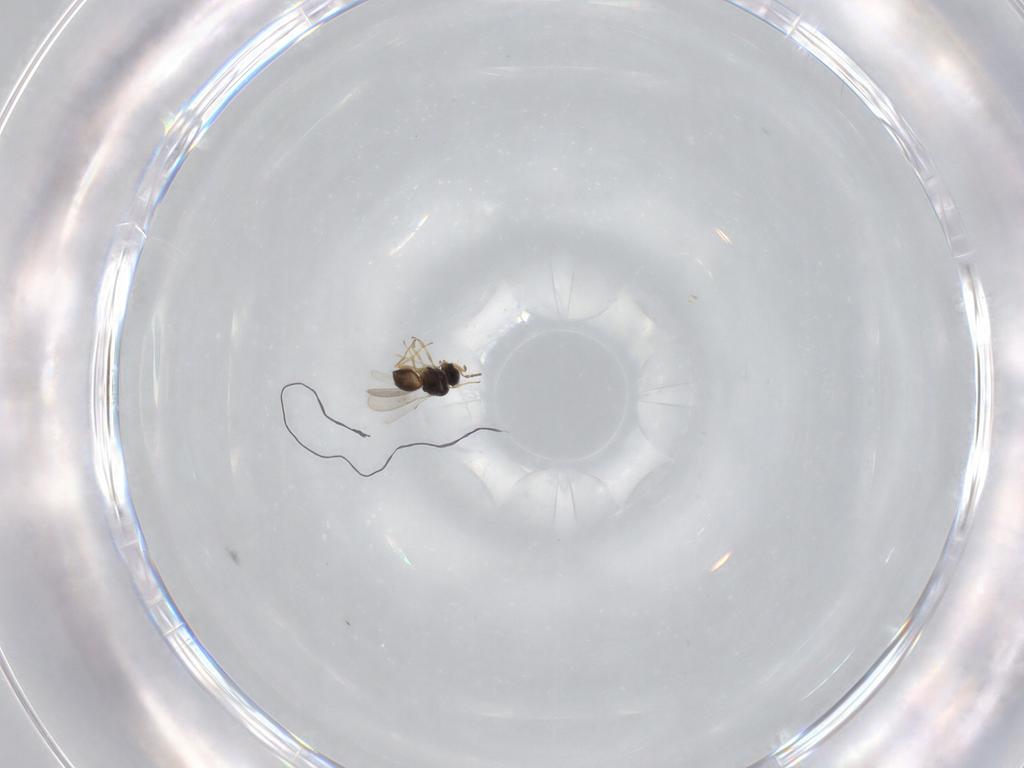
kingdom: Animalia
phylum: Arthropoda
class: Insecta
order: Hymenoptera
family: Scelionidae
